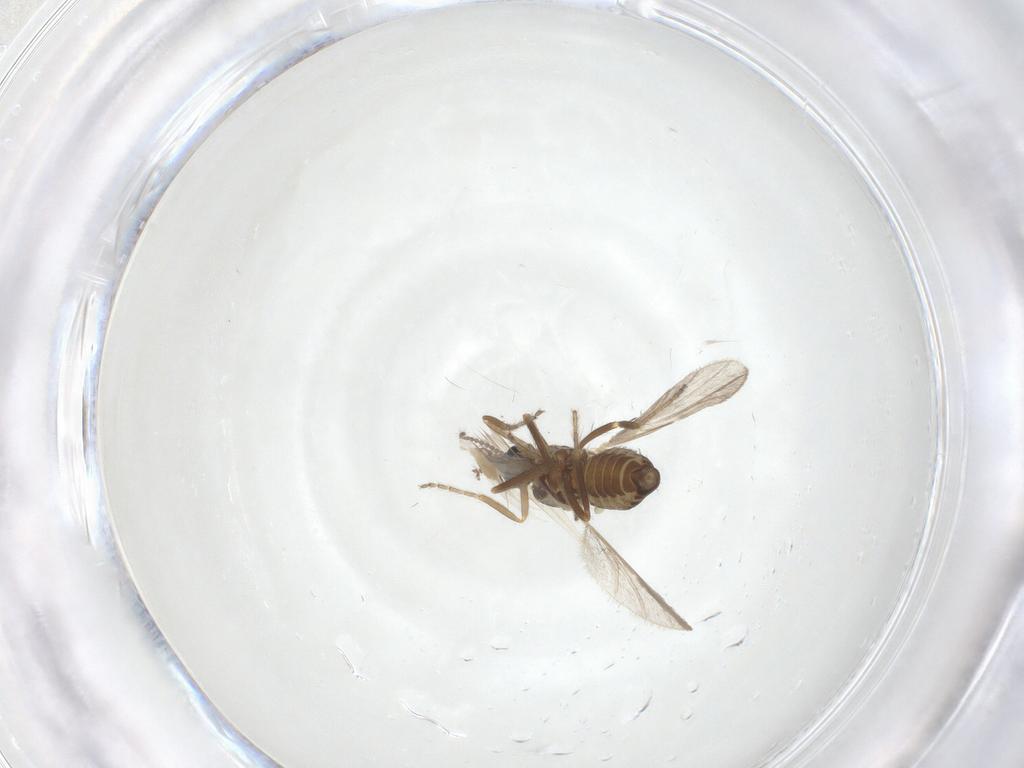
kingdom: Animalia
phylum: Arthropoda
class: Insecta
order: Diptera
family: Ceratopogonidae
